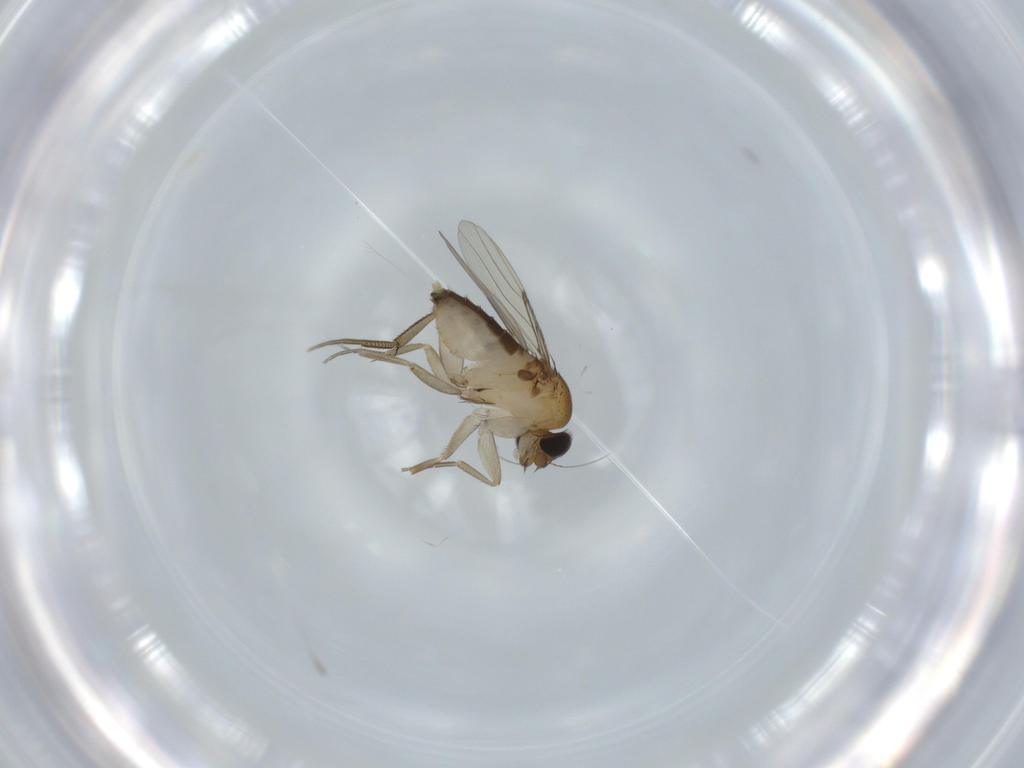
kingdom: Animalia
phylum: Arthropoda
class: Insecta
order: Diptera
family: Phoridae
